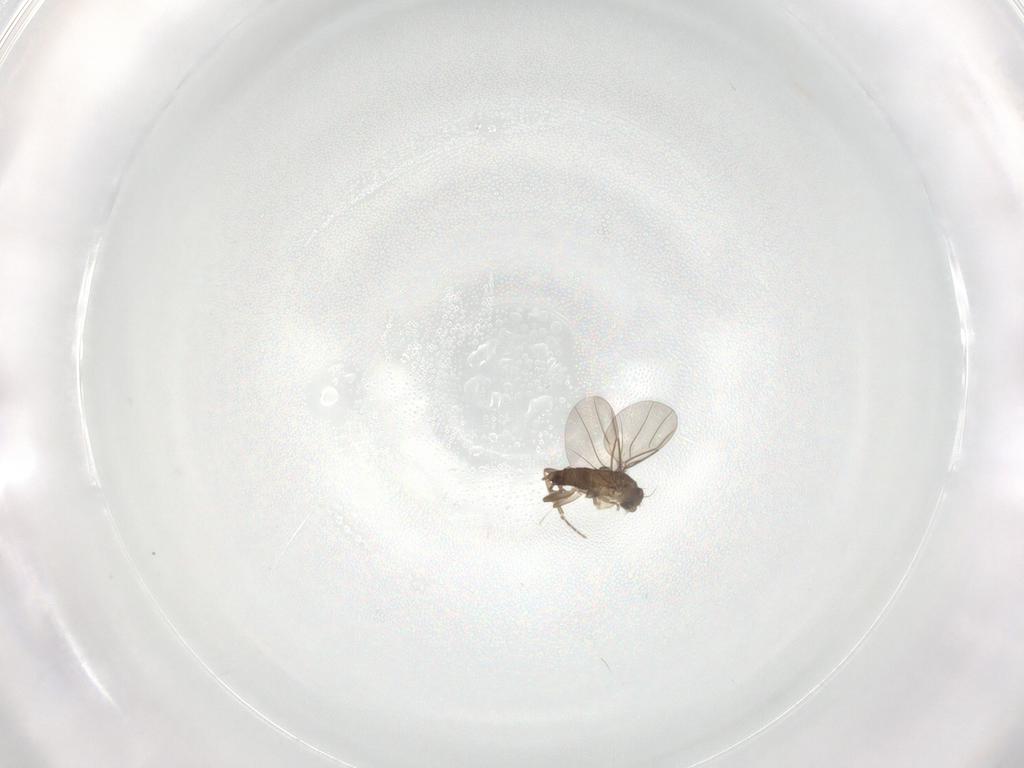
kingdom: Animalia
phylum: Arthropoda
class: Insecta
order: Diptera
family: Phoridae
